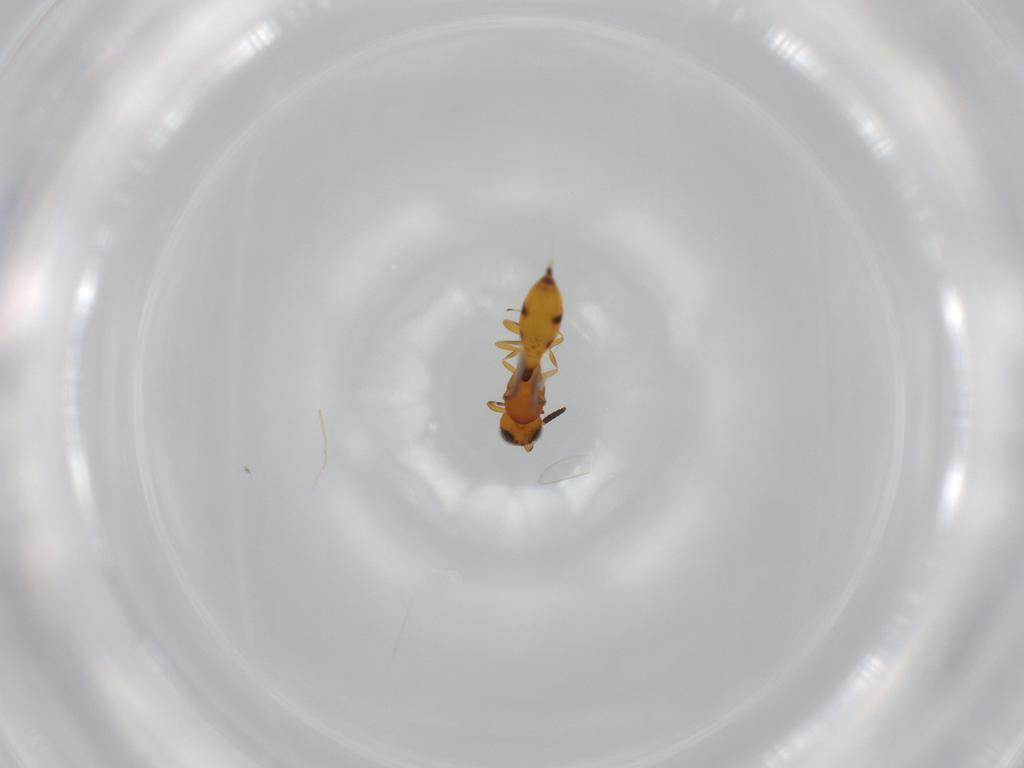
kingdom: Animalia
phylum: Arthropoda
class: Insecta
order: Hymenoptera
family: Scelionidae
